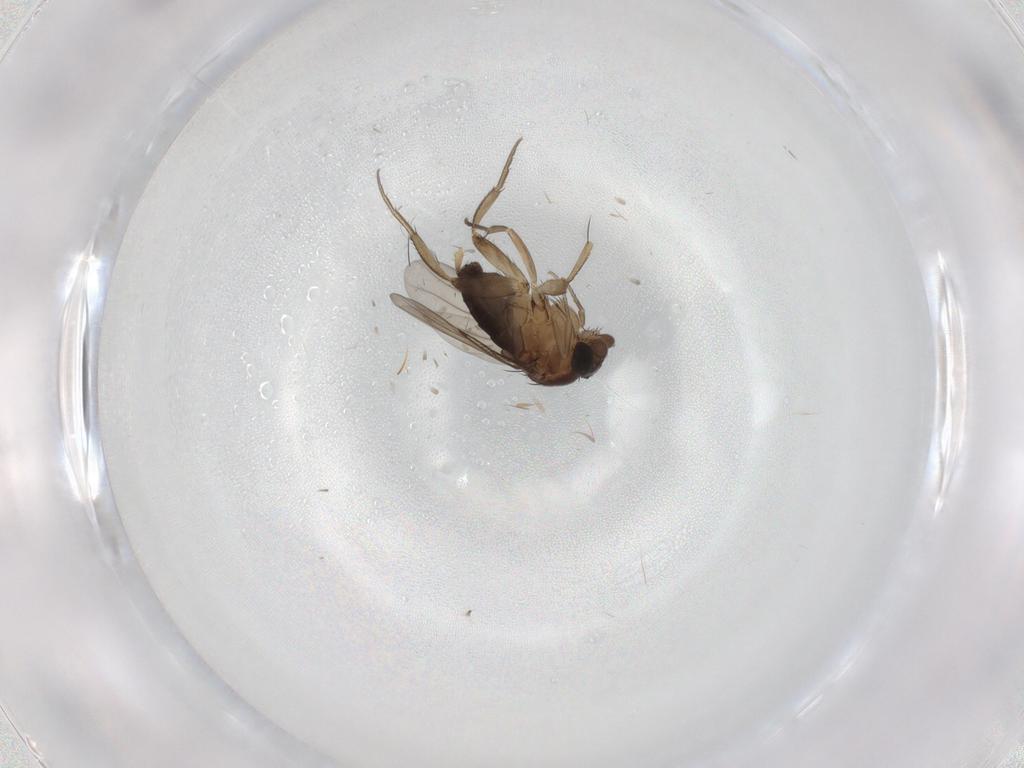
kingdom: Animalia
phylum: Arthropoda
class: Insecta
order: Diptera
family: Phoridae
